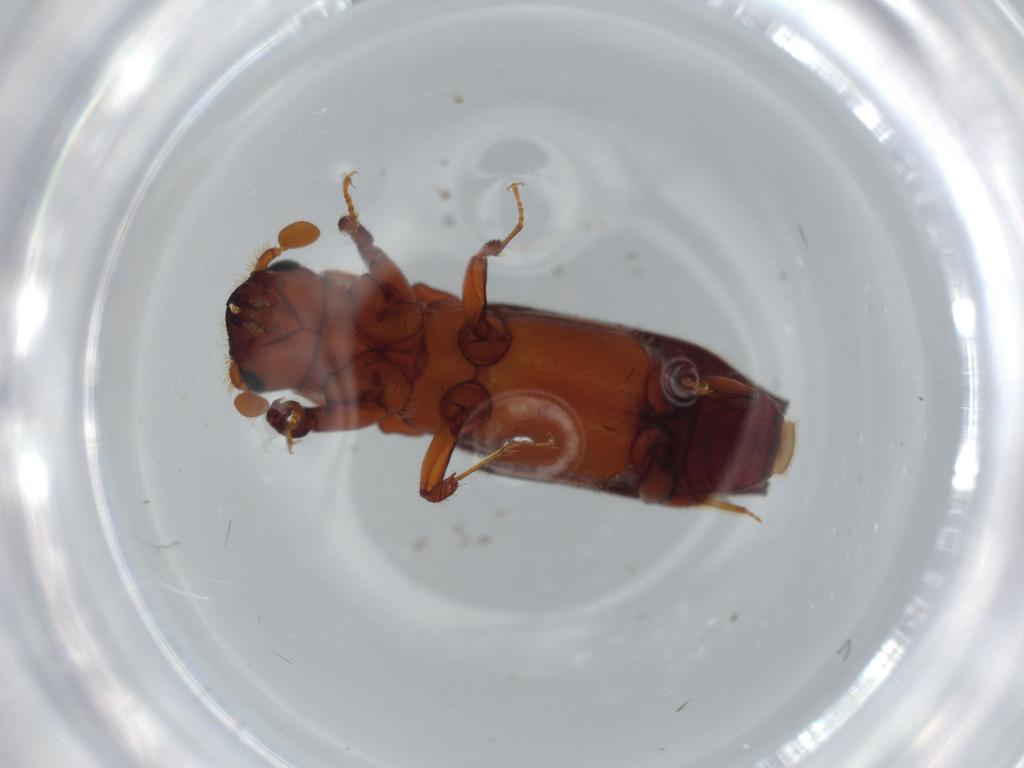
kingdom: Animalia
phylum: Arthropoda
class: Insecta
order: Coleoptera
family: Curculionidae
